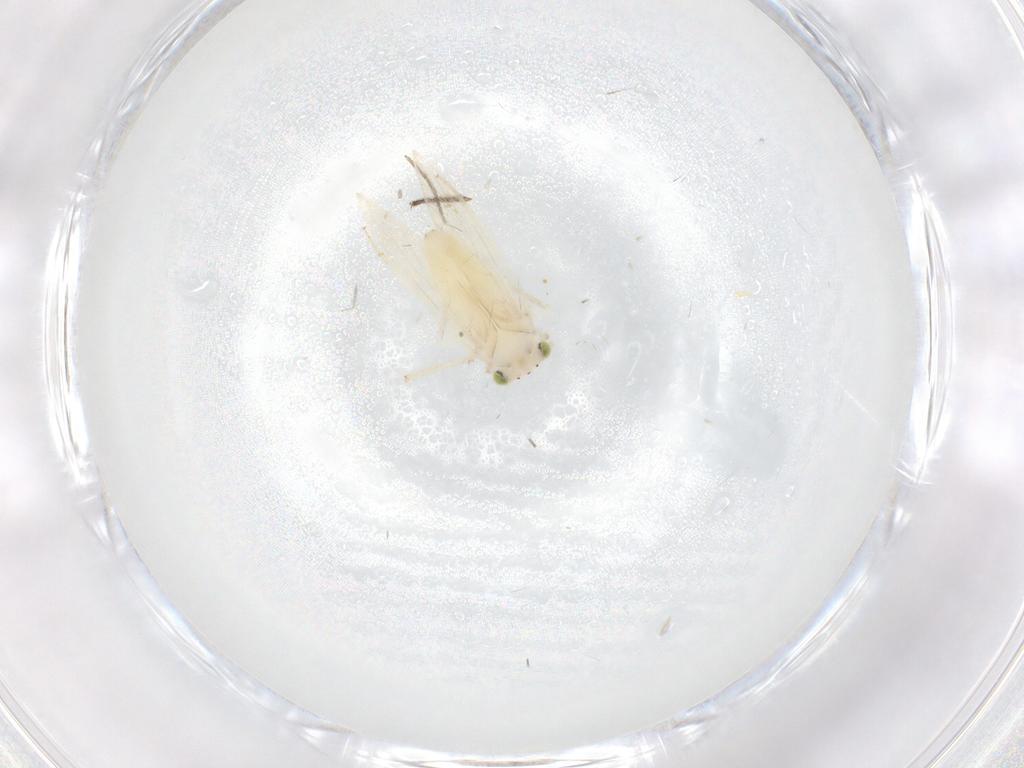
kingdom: Animalia
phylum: Arthropoda
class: Insecta
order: Psocodea
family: Lepidopsocidae
